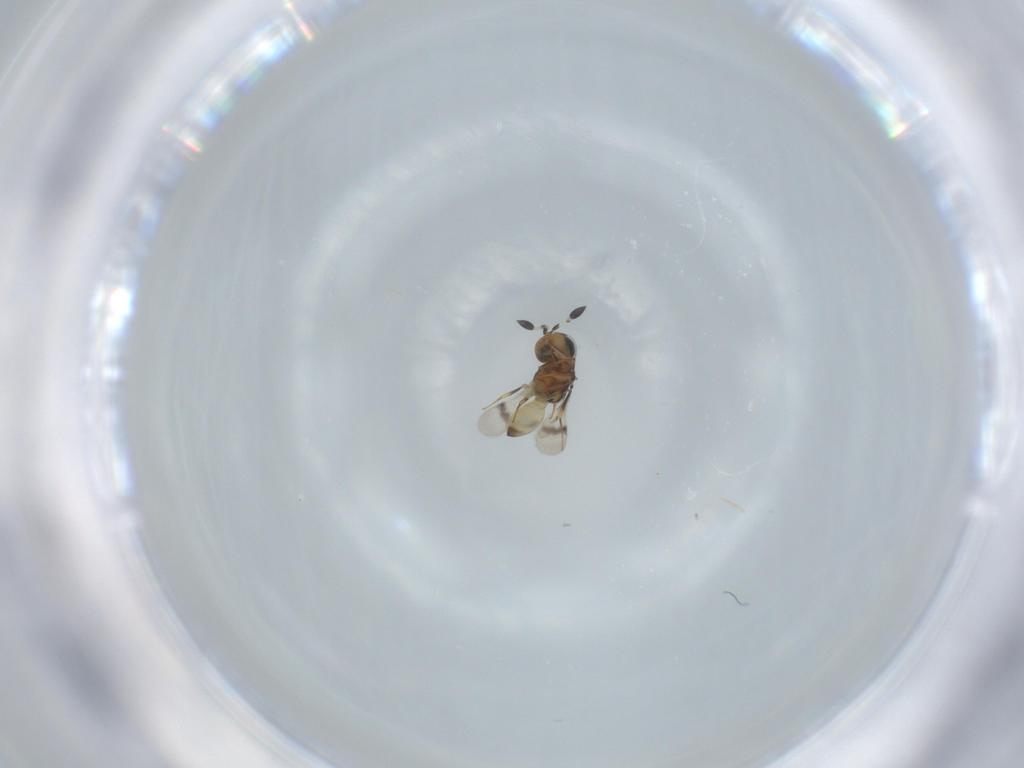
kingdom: Animalia
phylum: Arthropoda
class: Arachnida
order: Araneae
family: Pholcidae
